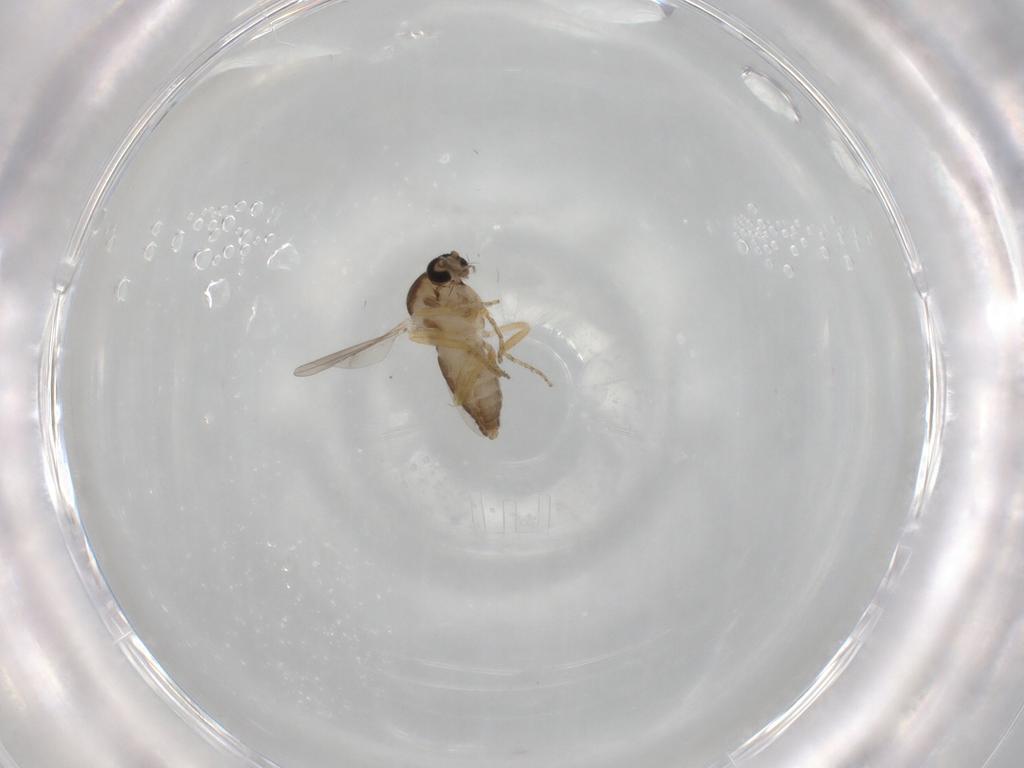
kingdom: Animalia
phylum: Arthropoda
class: Insecta
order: Diptera
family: Ceratopogonidae
